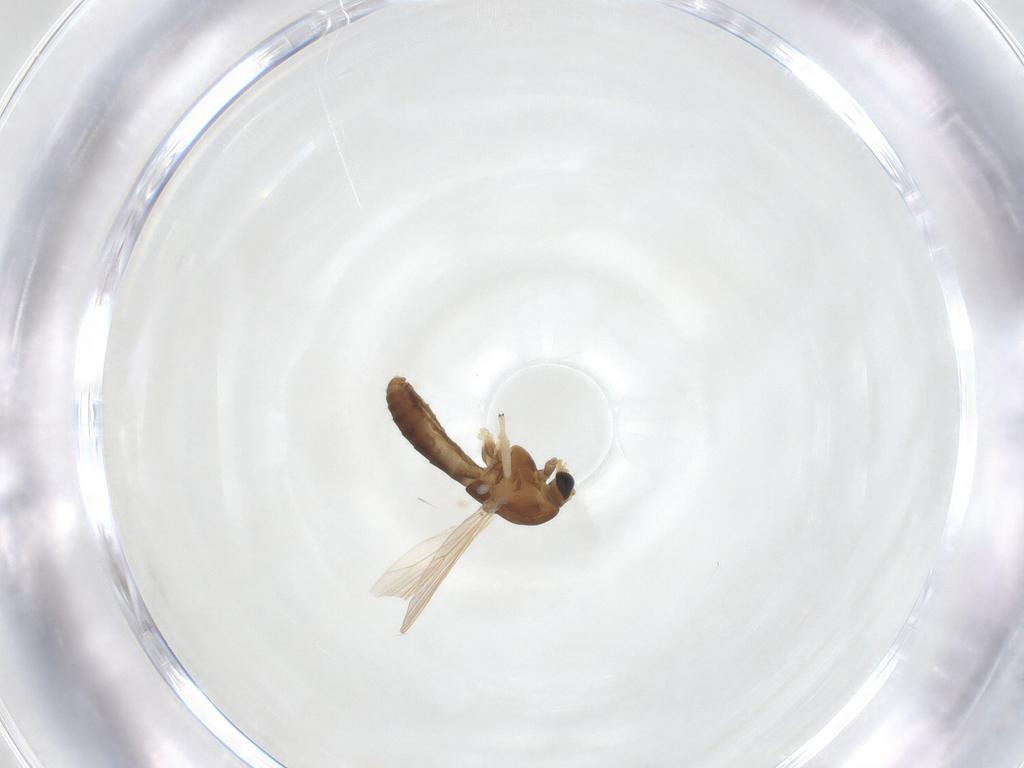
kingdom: Animalia
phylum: Arthropoda
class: Insecta
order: Diptera
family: Chironomidae
